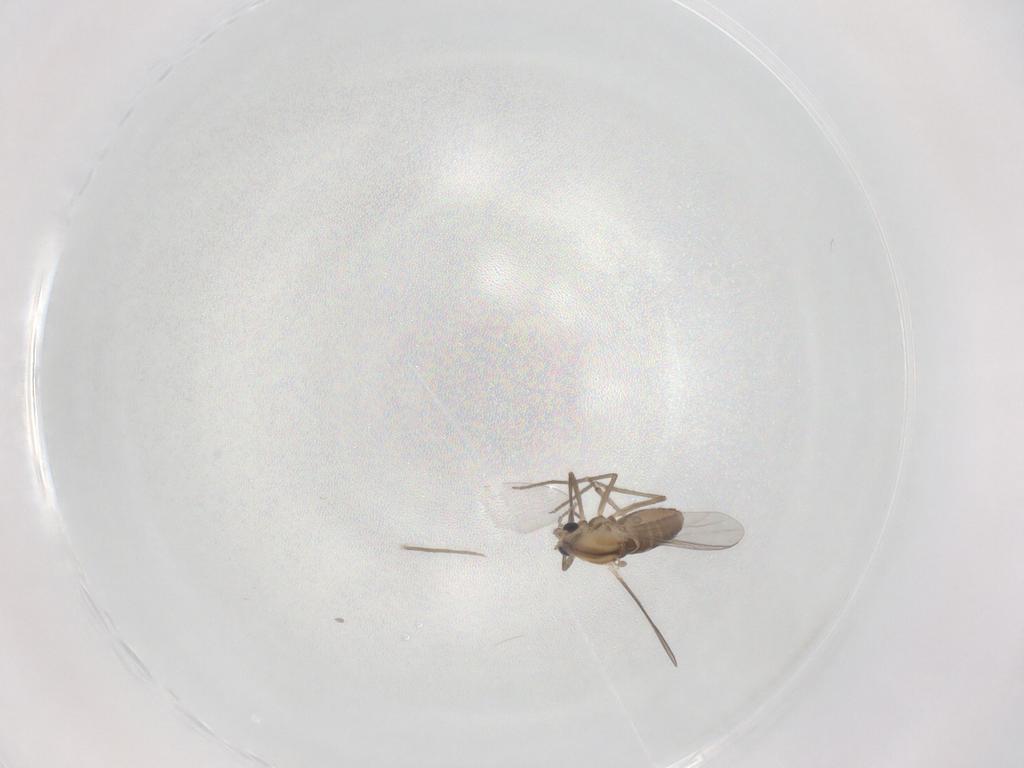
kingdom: Animalia
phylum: Arthropoda
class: Insecta
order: Diptera
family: Chironomidae
